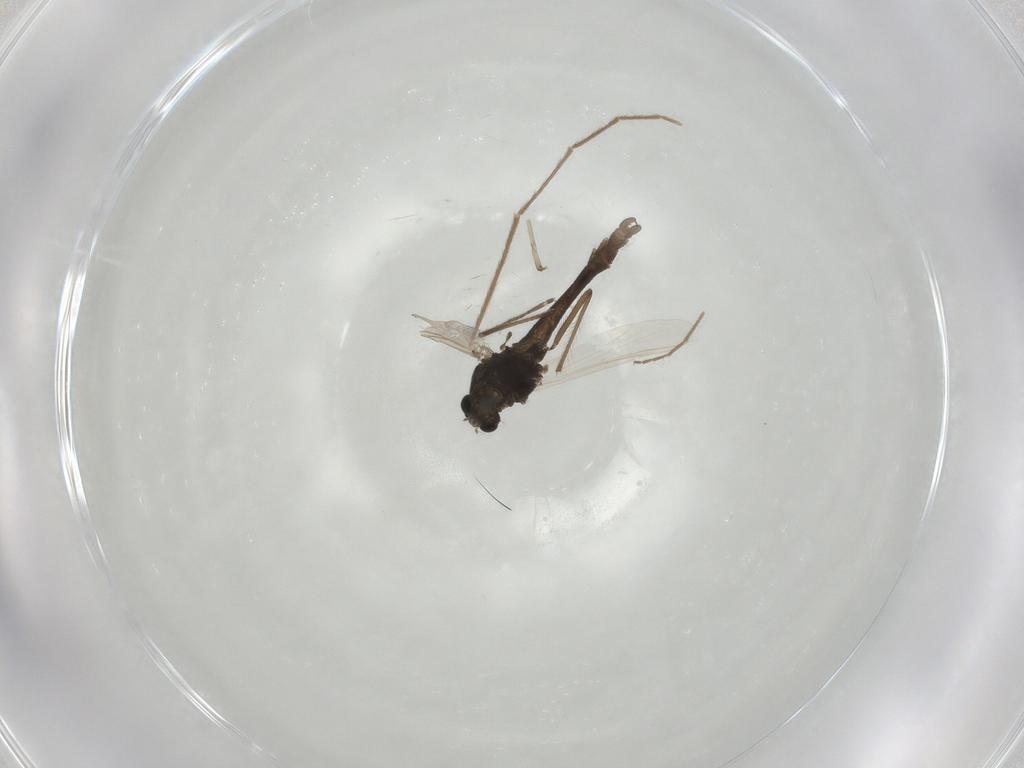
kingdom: Animalia
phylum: Arthropoda
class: Insecta
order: Diptera
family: Chironomidae
